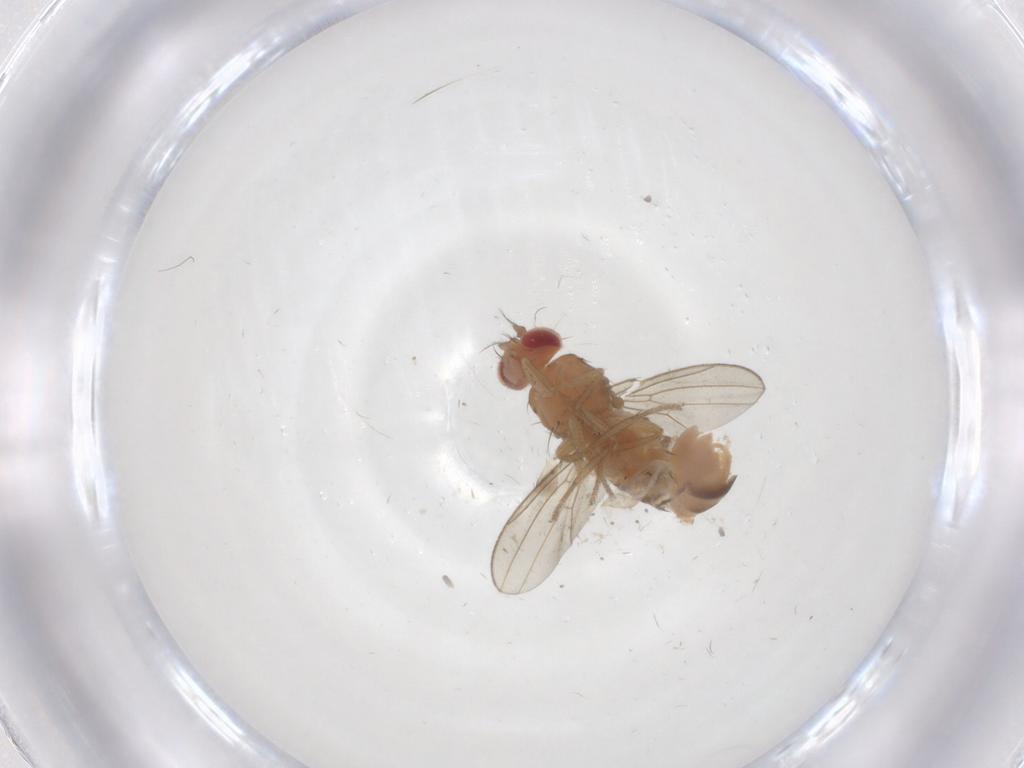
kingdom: Animalia
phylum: Arthropoda
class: Insecta
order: Diptera
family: Drosophilidae
